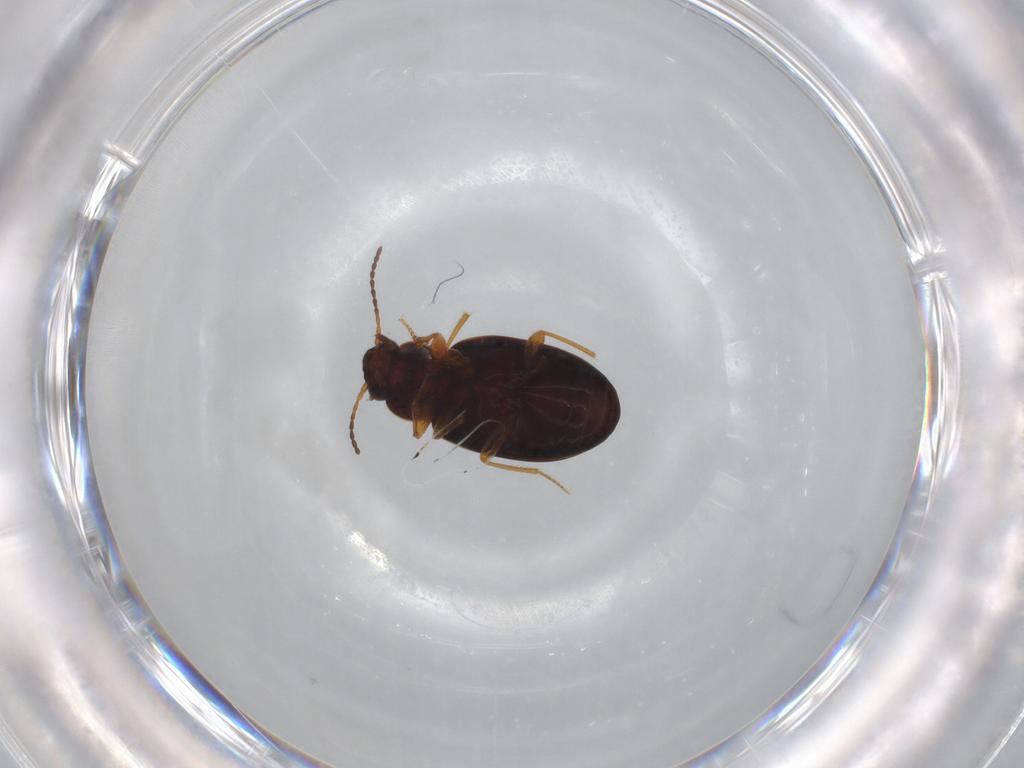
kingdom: Animalia
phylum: Arthropoda
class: Insecta
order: Coleoptera
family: Carabidae
